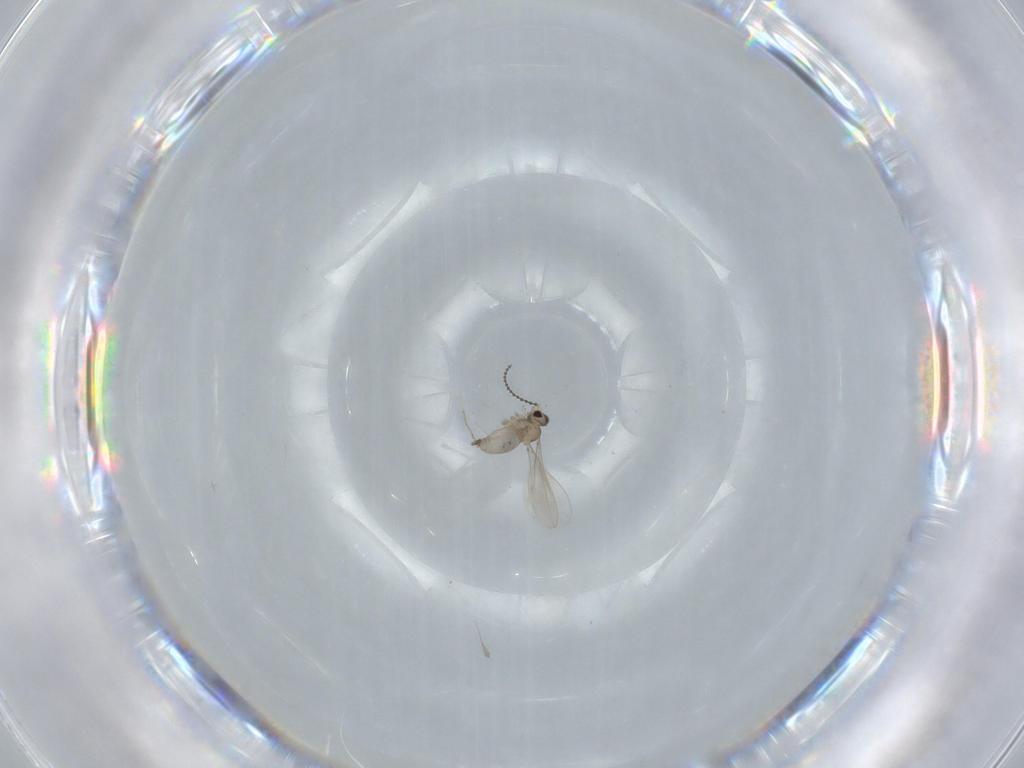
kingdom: Animalia
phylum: Arthropoda
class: Insecta
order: Diptera
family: Cecidomyiidae
